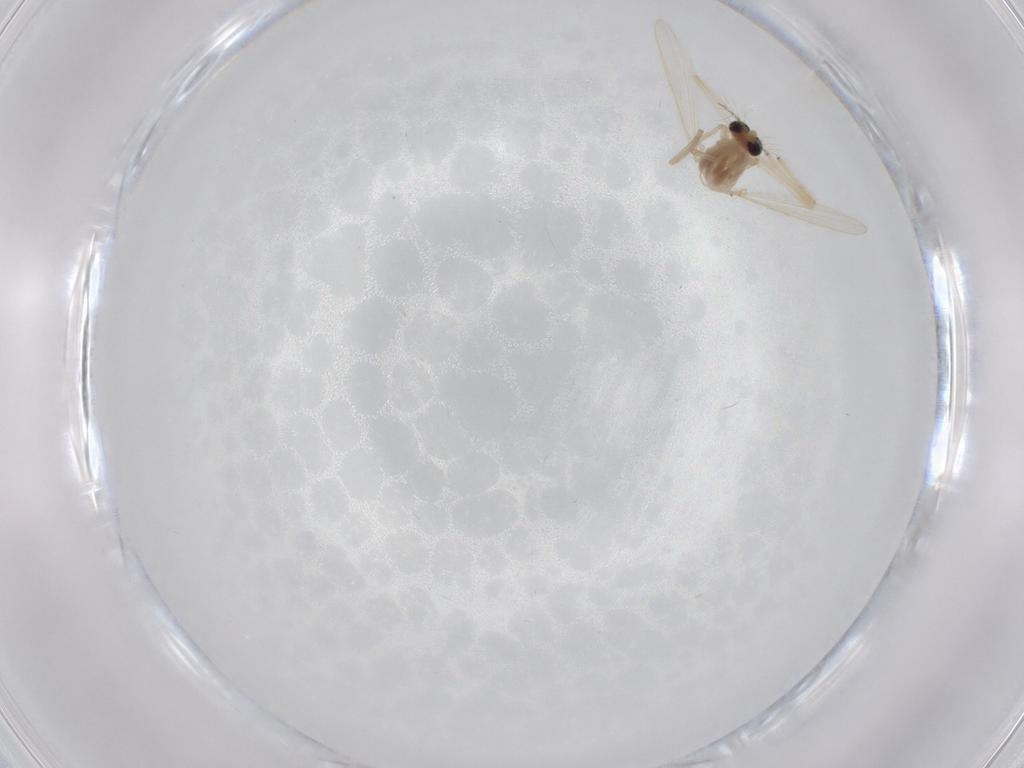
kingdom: Animalia
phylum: Arthropoda
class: Insecta
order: Diptera
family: Chironomidae
